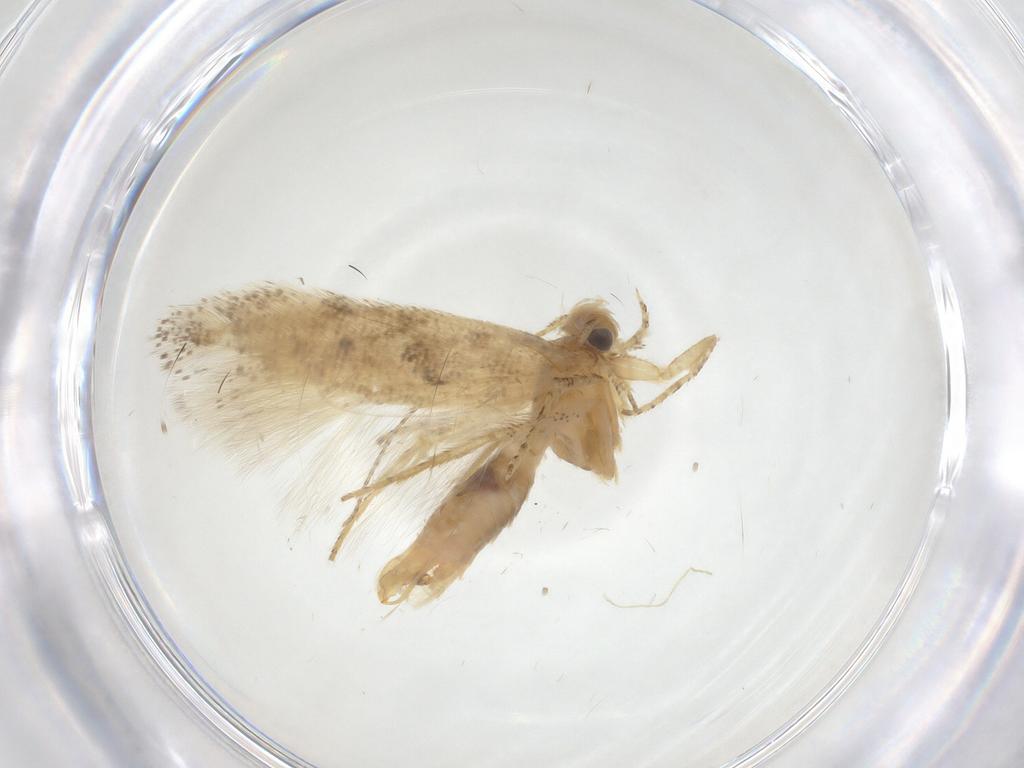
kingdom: Animalia
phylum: Arthropoda
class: Insecta
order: Lepidoptera
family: Gelechiidae
